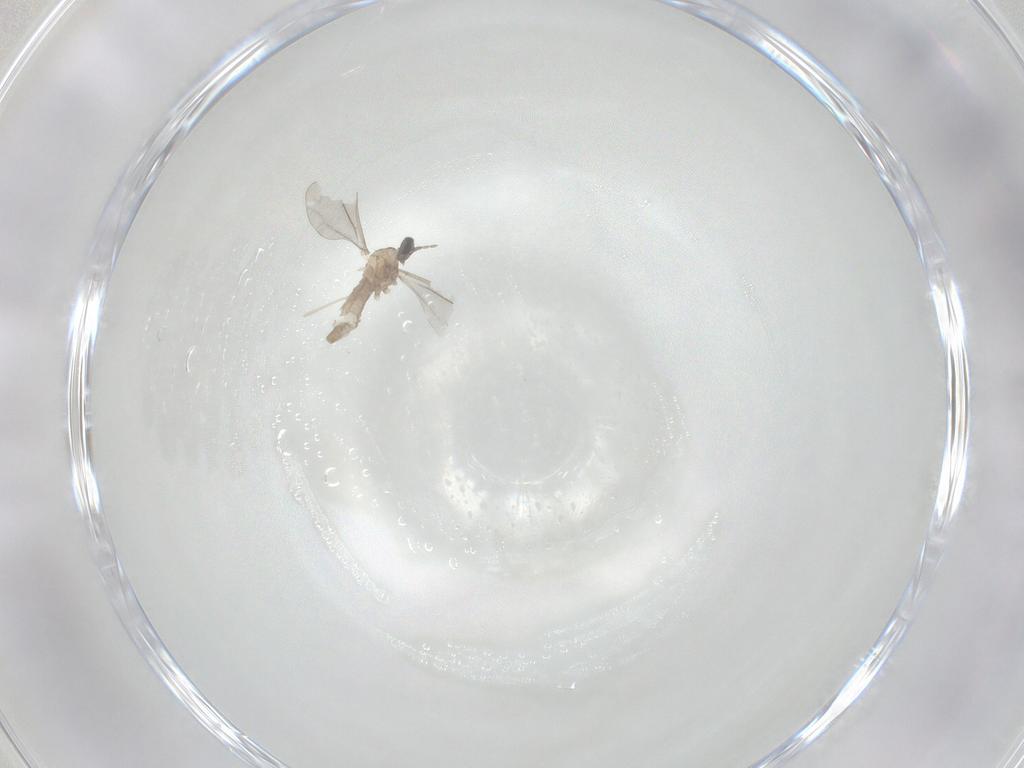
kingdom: Animalia
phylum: Arthropoda
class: Insecta
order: Diptera
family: Cecidomyiidae
